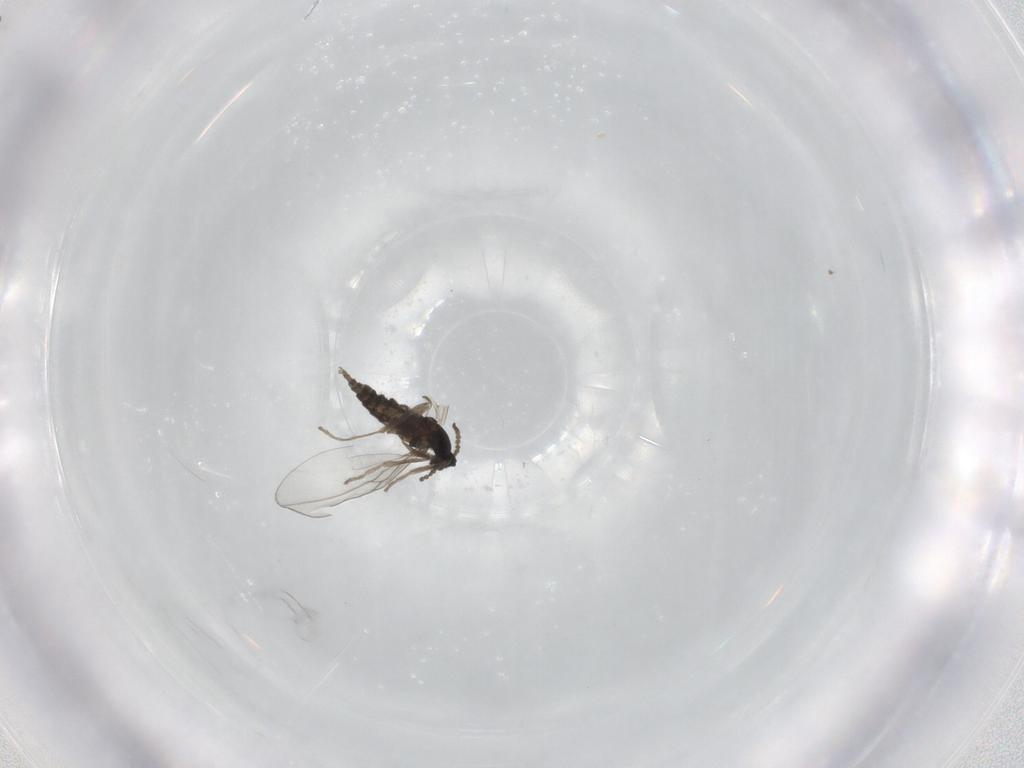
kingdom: Animalia
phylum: Arthropoda
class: Insecta
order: Diptera
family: Cecidomyiidae
